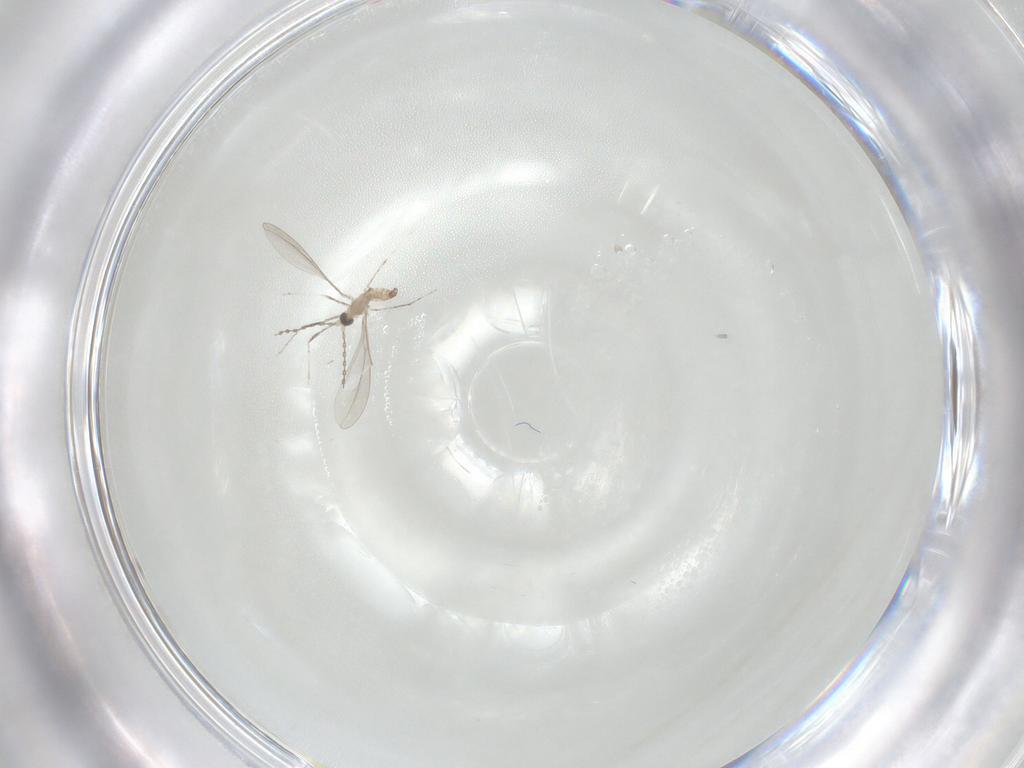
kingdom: Animalia
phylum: Arthropoda
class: Insecta
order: Diptera
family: Cecidomyiidae
